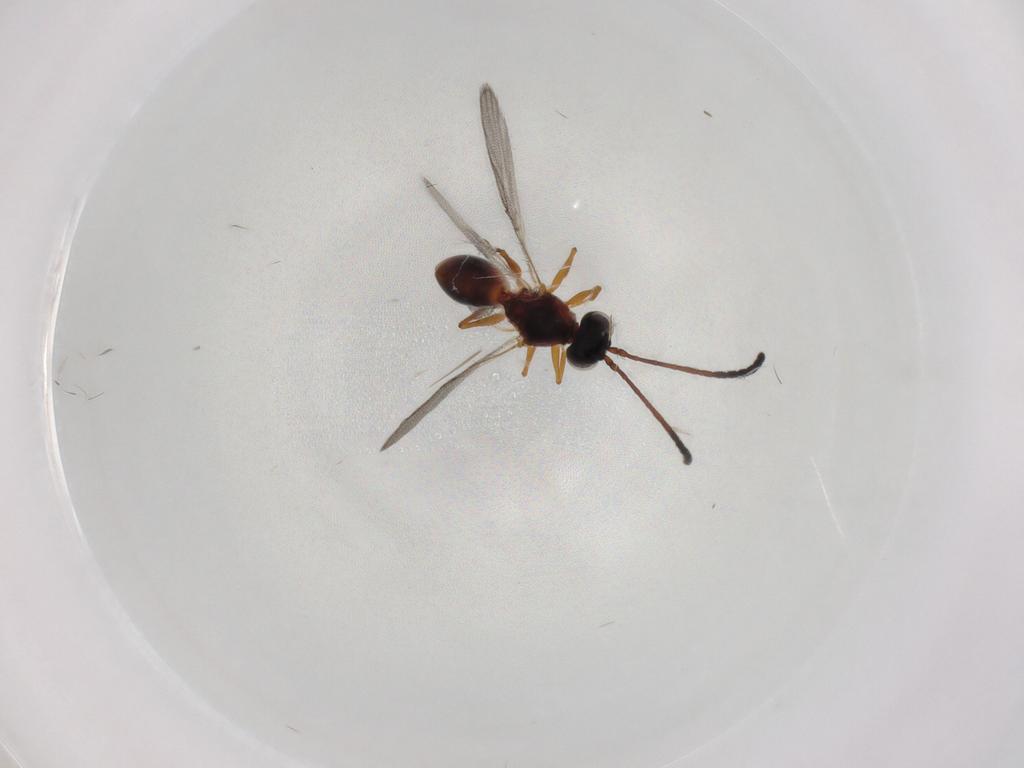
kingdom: Animalia
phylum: Arthropoda
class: Insecta
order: Hymenoptera
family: Figitidae
